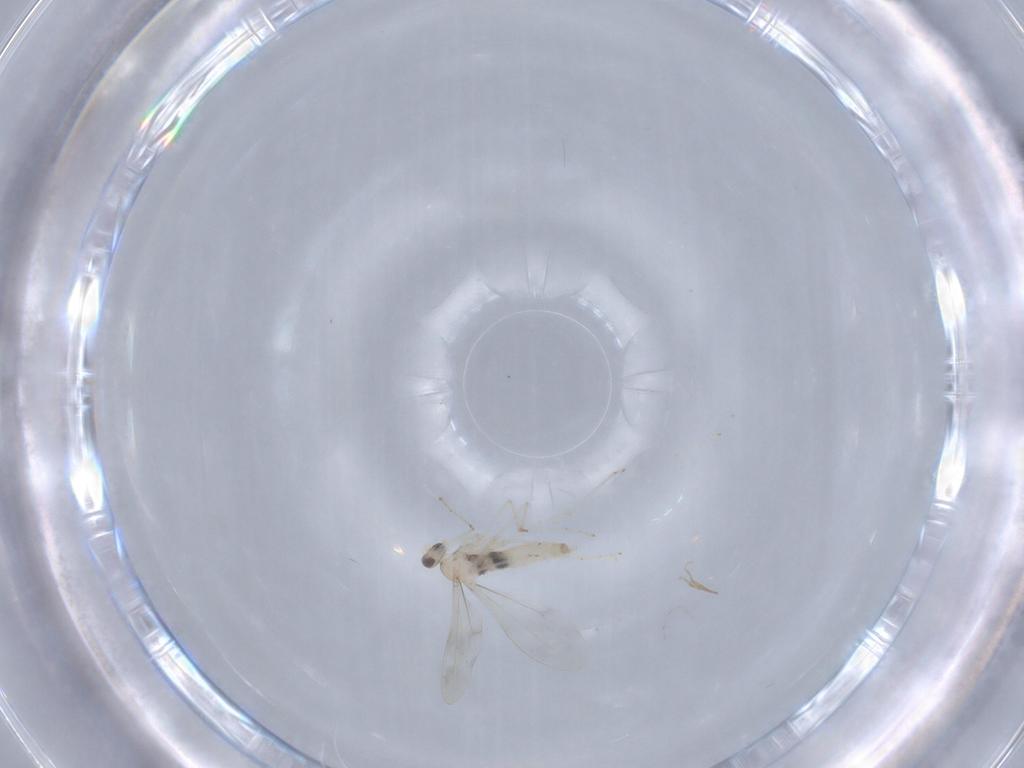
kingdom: Animalia
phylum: Arthropoda
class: Insecta
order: Diptera
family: Cecidomyiidae
